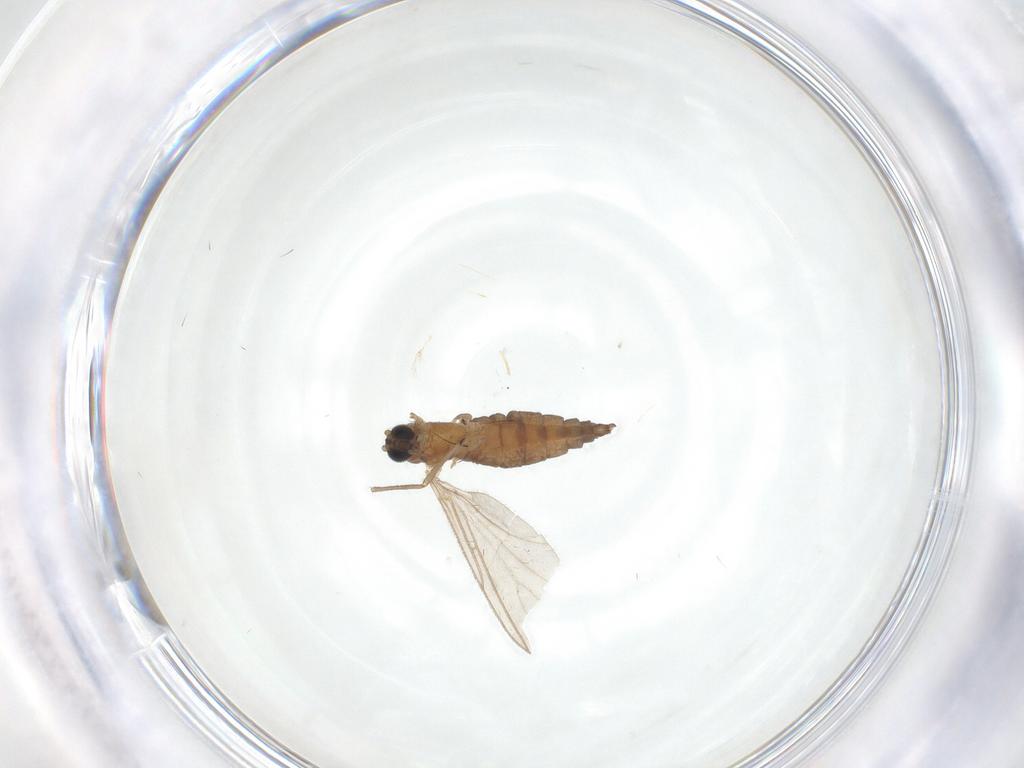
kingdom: Animalia
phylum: Arthropoda
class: Insecta
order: Diptera
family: Sciaridae
